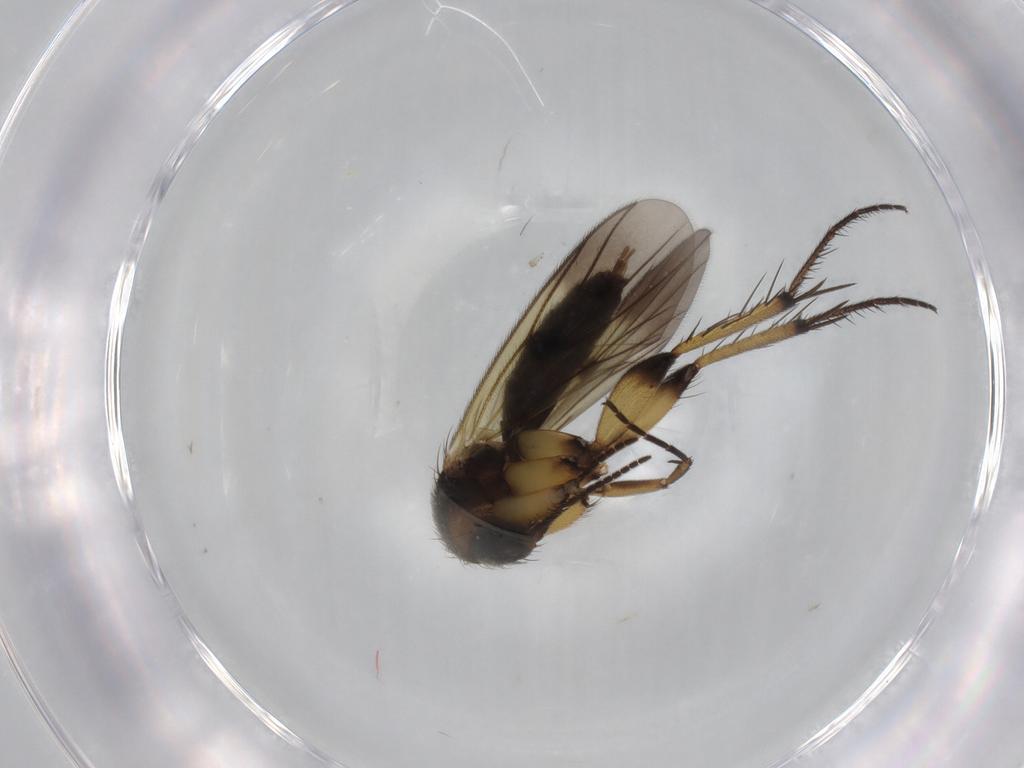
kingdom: Animalia
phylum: Arthropoda
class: Insecta
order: Diptera
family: Mycetophilidae
